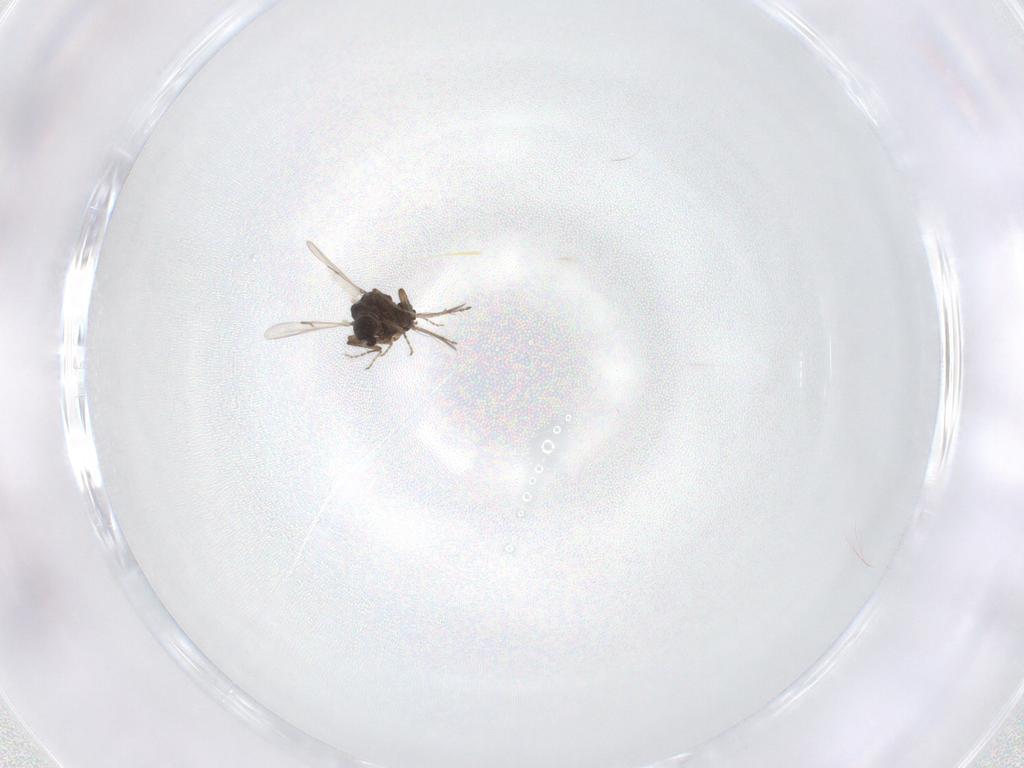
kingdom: Animalia
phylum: Arthropoda
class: Insecta
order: Diptera
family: Ceratopogonidae
